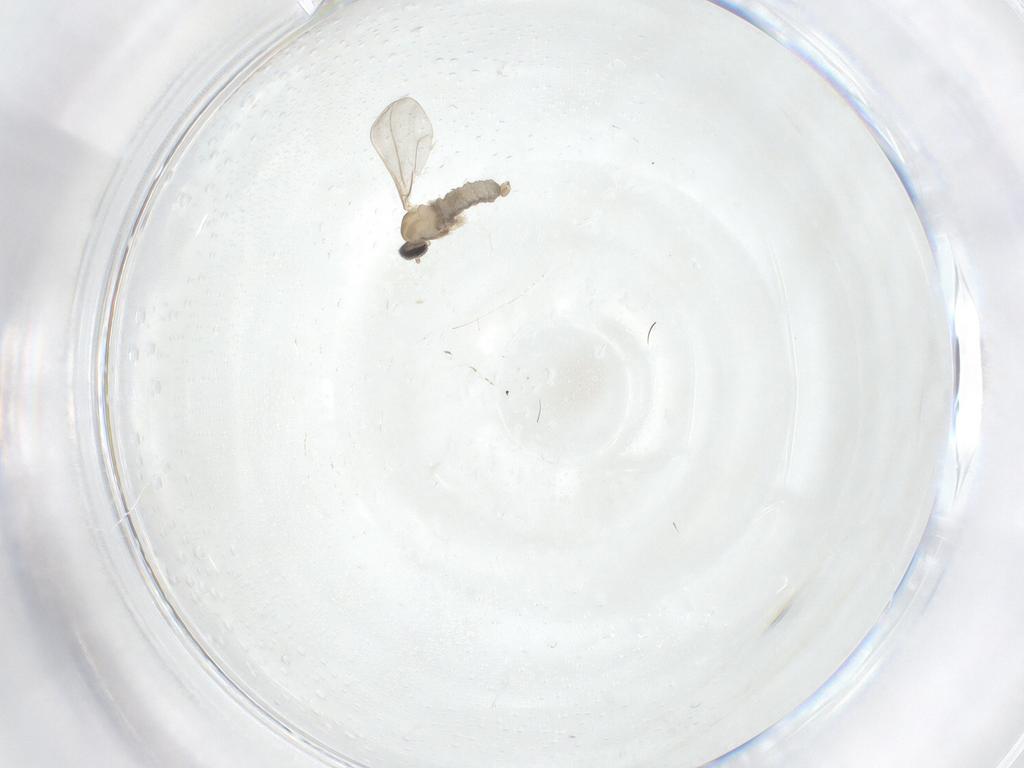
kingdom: Animalia
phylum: Arthropoda
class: Insecta
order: Diptera
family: Cecidomyiidae
